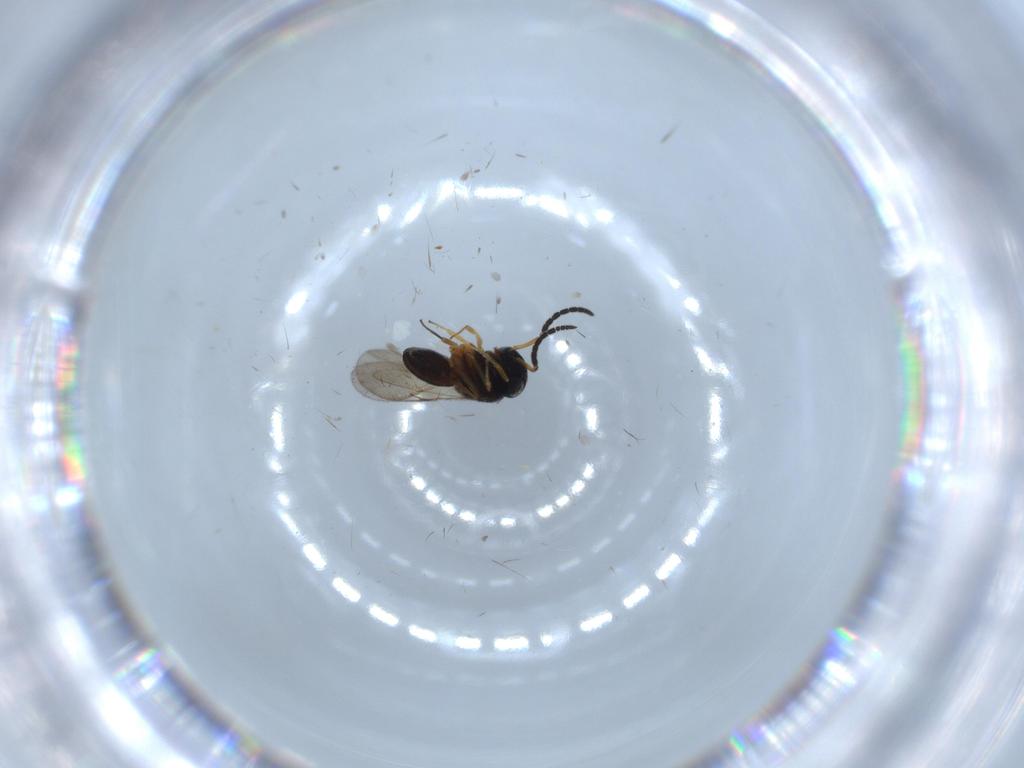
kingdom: Animalia
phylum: Arthropoda
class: Insecta
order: Hymenoptera
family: Scelionidae
